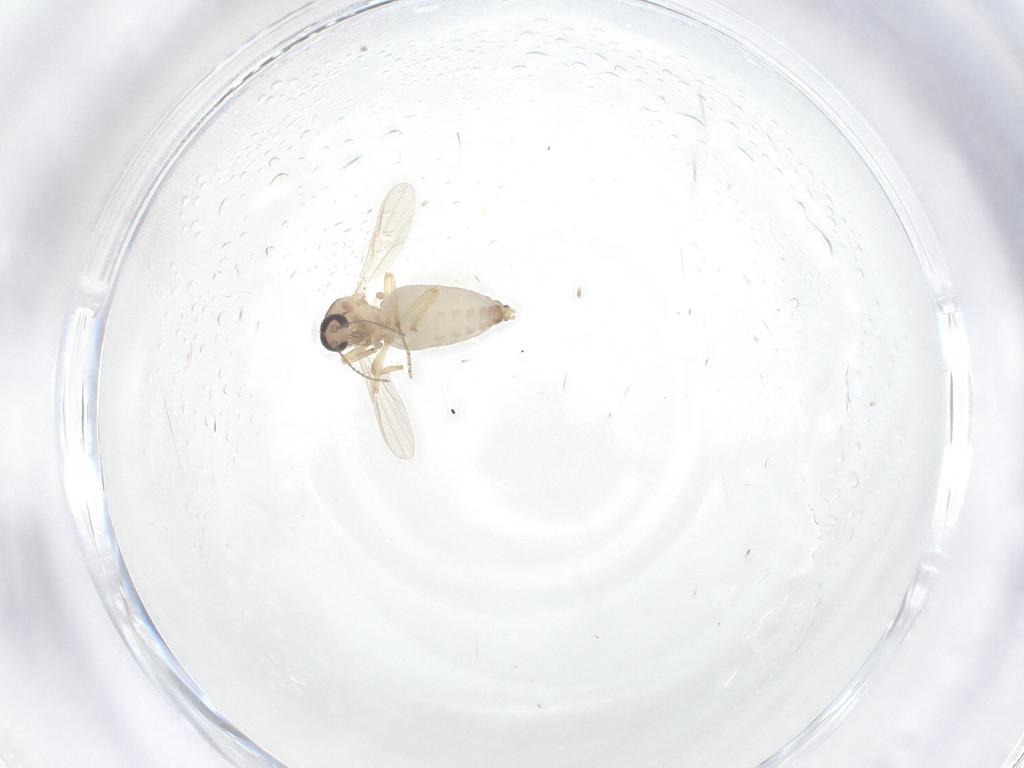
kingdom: Animalia
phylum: Arthropoda
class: Insecta
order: Diptera
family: Ceratopogonidae
